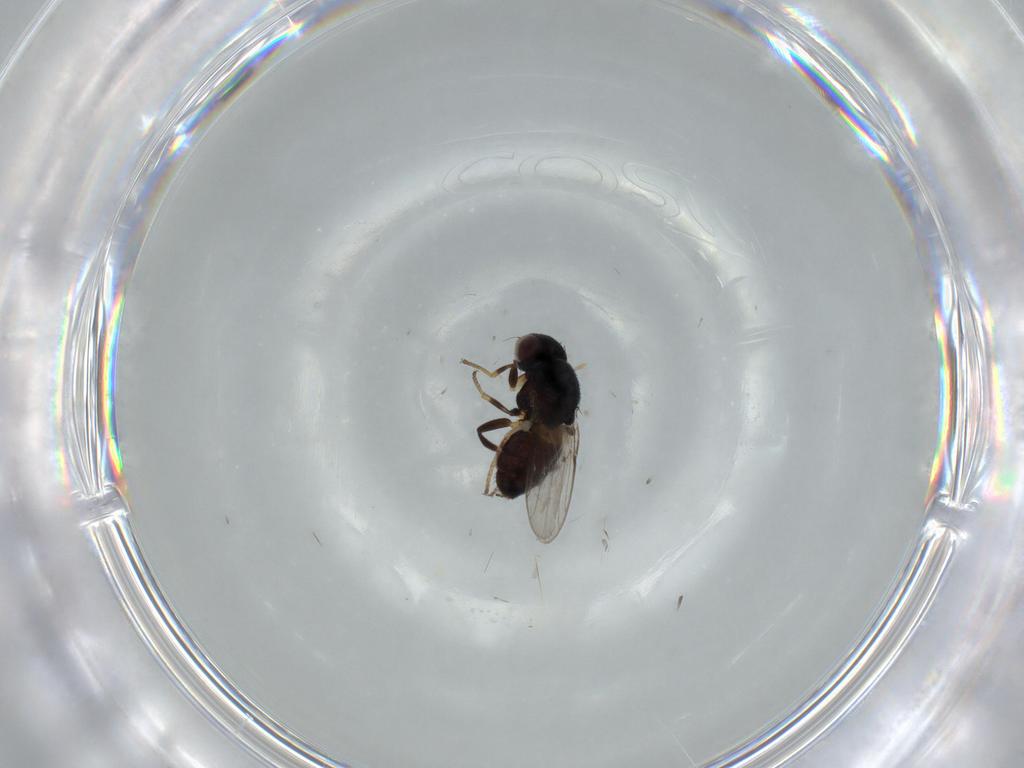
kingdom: Animalia
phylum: Arthropoda
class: Insecta
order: Diptera
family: Chloropidae
